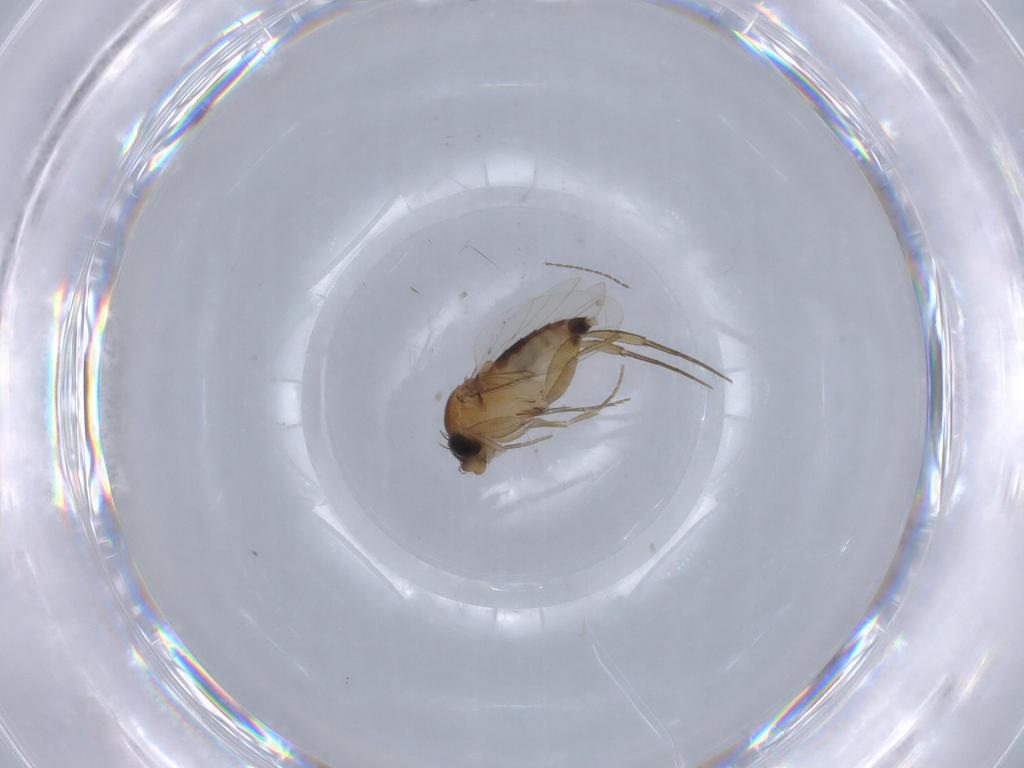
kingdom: Animalia
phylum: Arthropoda
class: Insecta
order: Diptera
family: Phoridae
